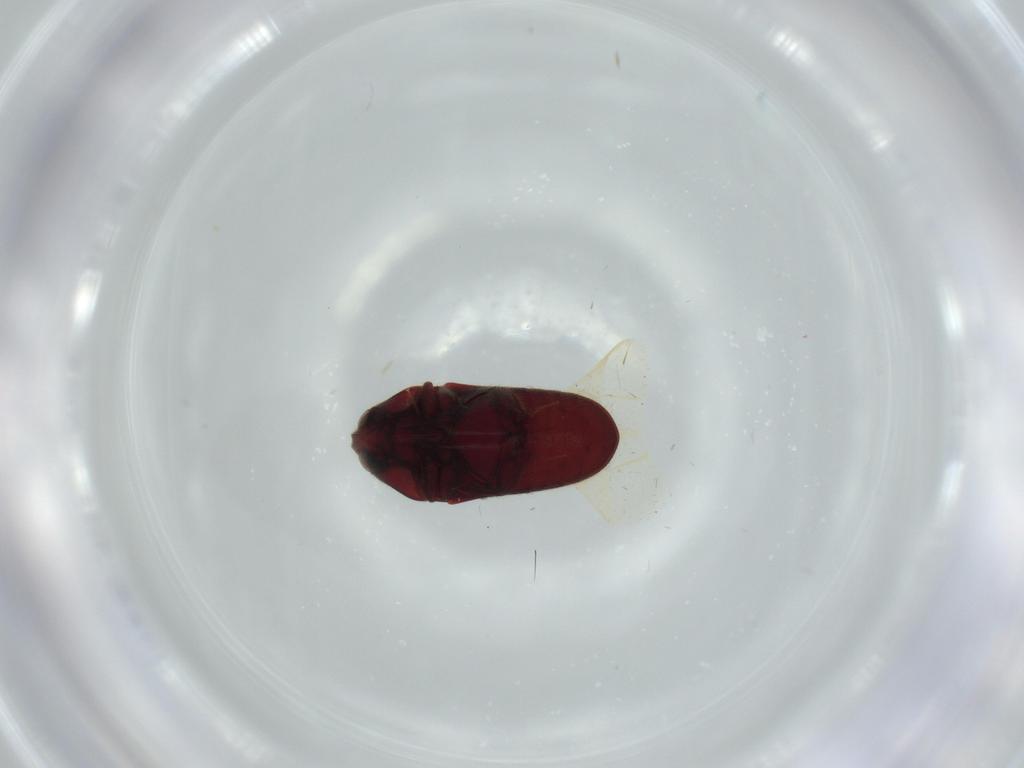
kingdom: Animalia
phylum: Arthropoda
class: Insecta
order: Coleoptera
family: Throscidae
